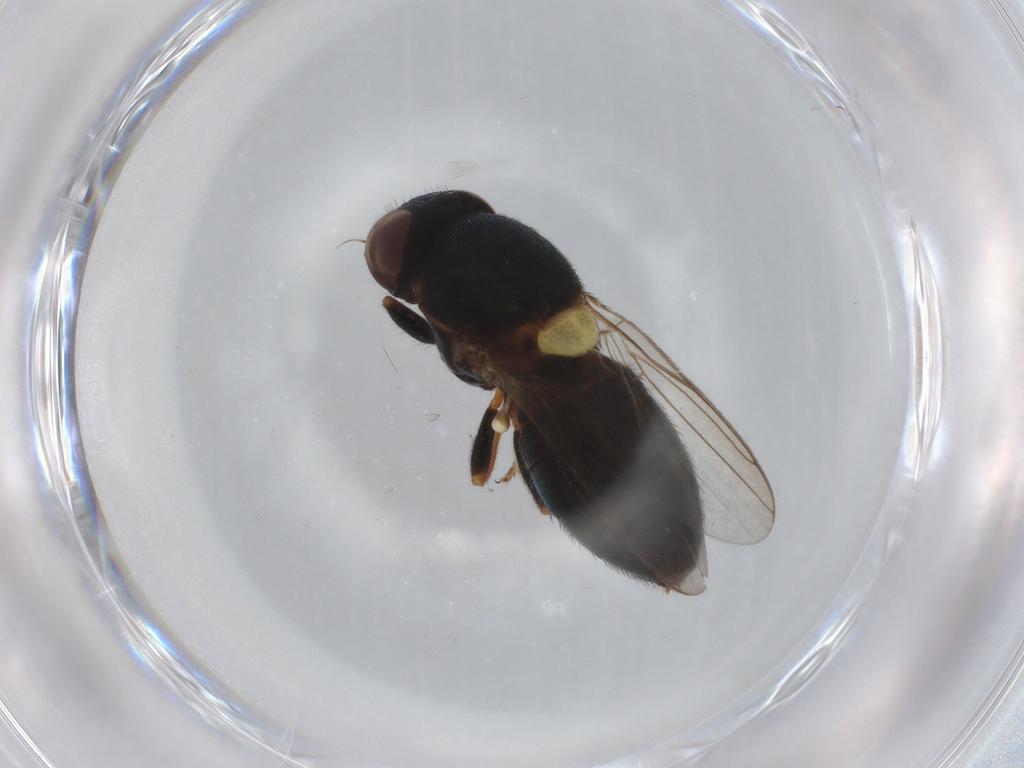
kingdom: Animalia
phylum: Arthropoda
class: Insecta
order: Diptera
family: Chloropidae
